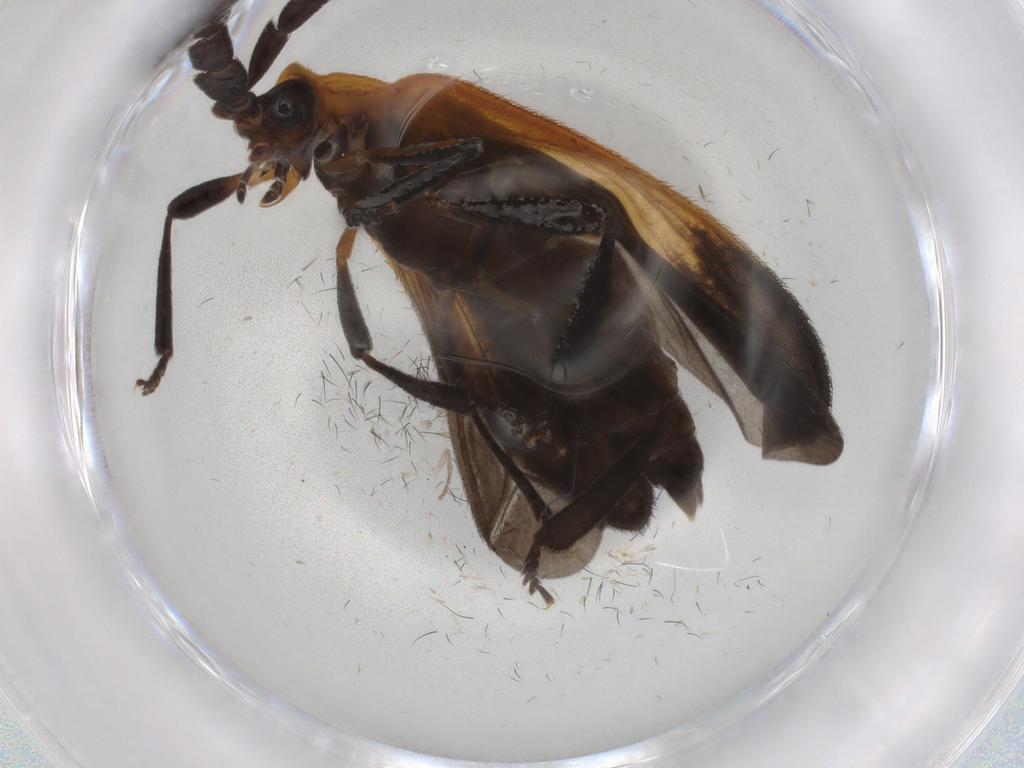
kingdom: Animalia
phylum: Arthropoda
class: Insecta
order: Coleoptera
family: Lycidae
